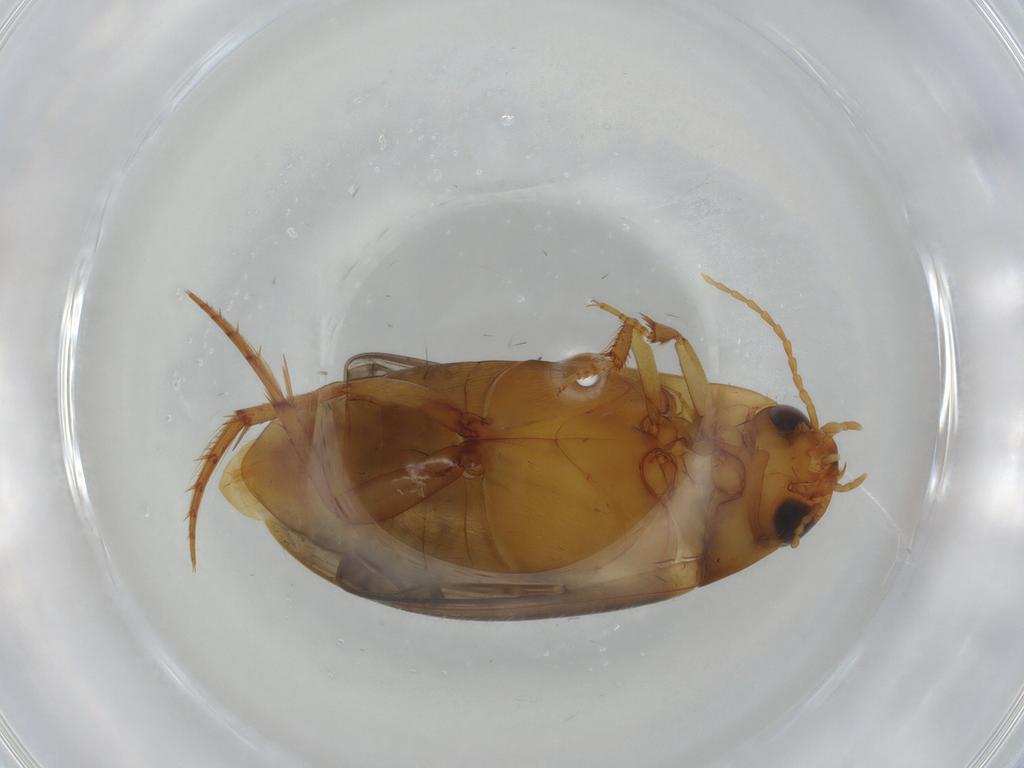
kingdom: Animalia
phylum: Arthropoda
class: Insecta
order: Coleoptera
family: Dytiscidae
